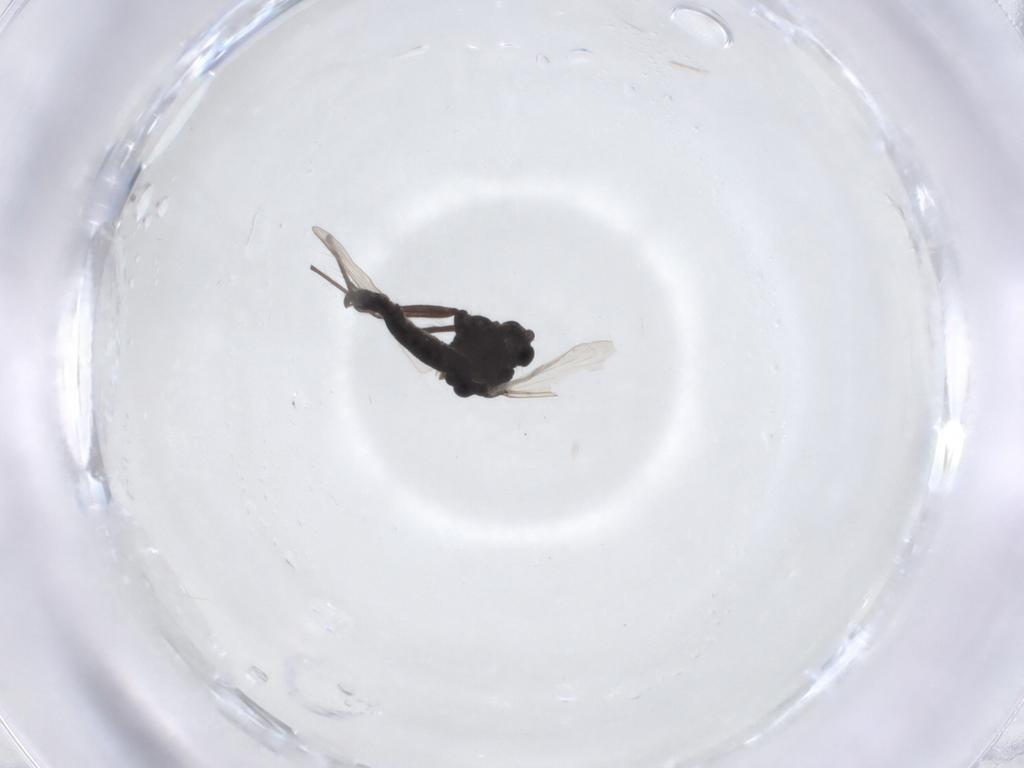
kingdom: Animalia
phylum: Arthropoda
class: Insecta
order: Diptera
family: Chironomidae
